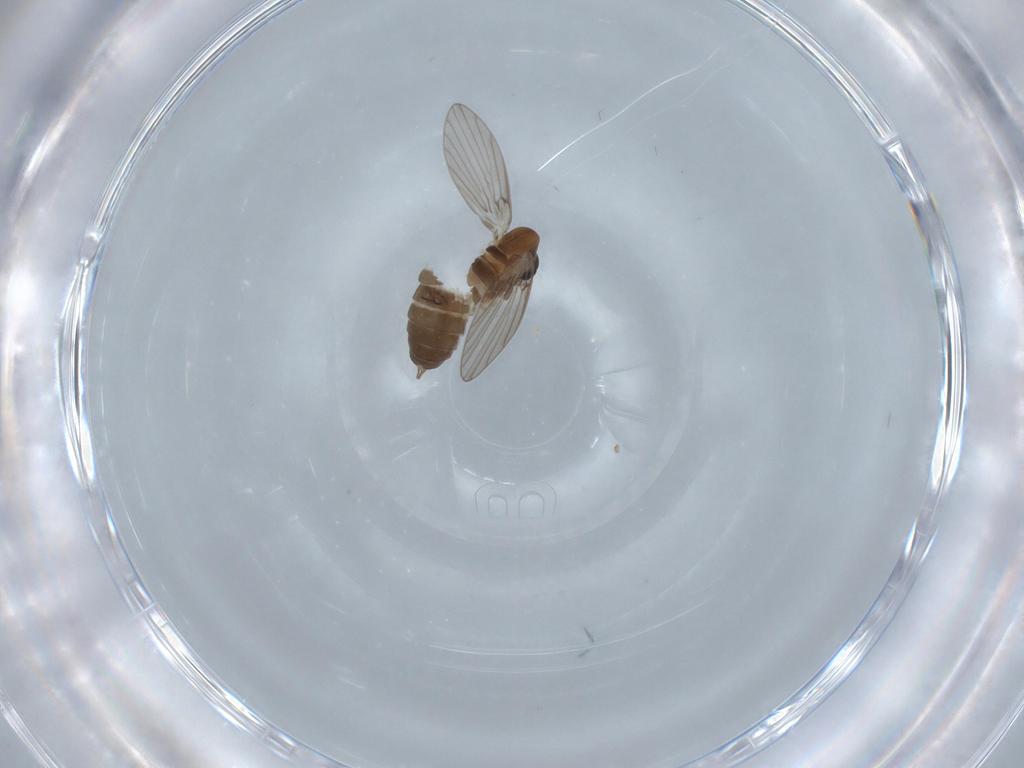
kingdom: Animalia
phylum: Arthropoda
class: Insecta
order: Diptera
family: Psychodidae
